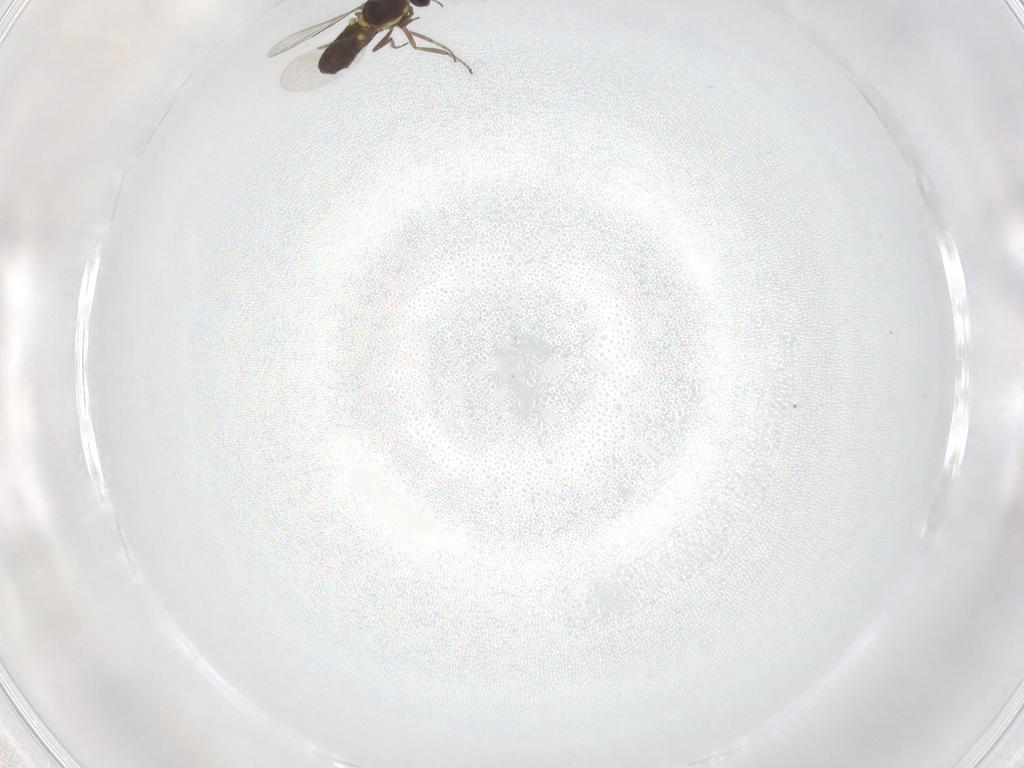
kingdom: Animalia
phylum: Arthropoda
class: Insecta
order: Diptera
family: Ceratopogonidae
